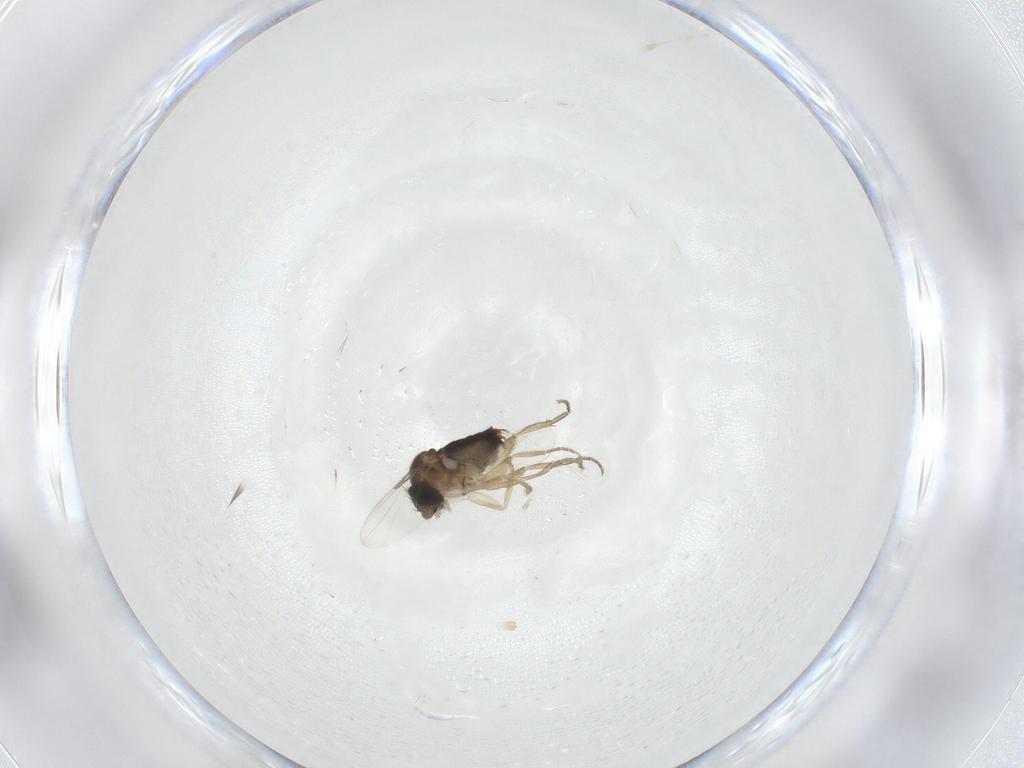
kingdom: Animalia
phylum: Arthropoda
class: Insecta
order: Diptera
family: Phoridae
